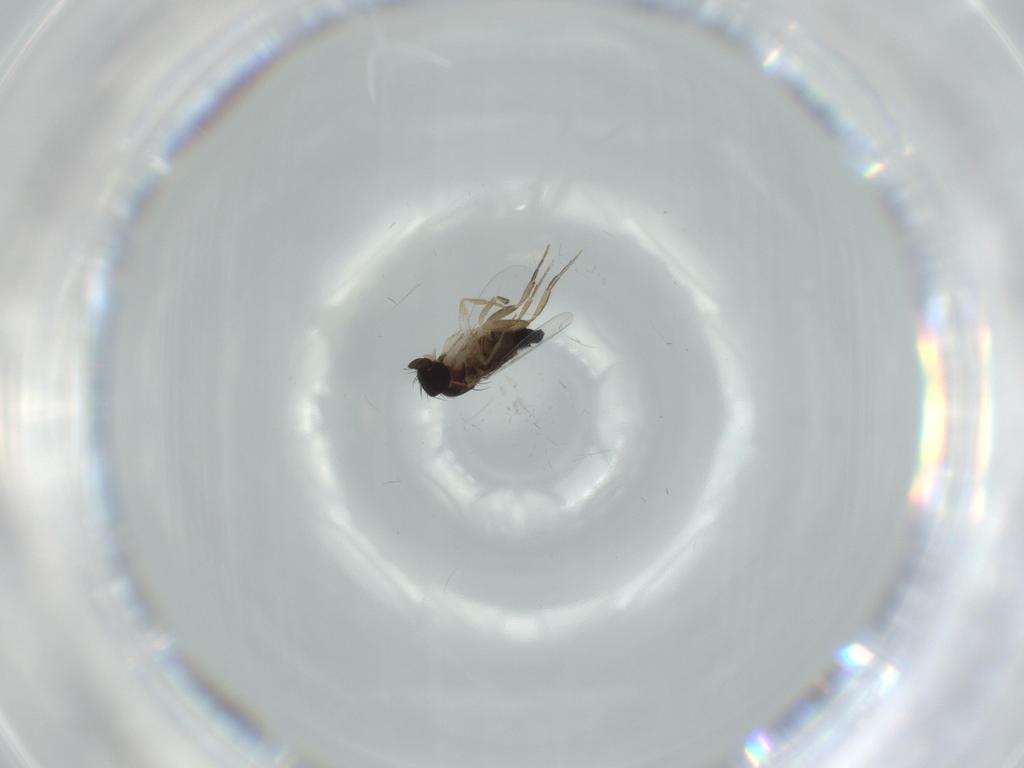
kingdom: Animalia
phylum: Arthropoda
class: Insecta
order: Diptera
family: Phoridae
